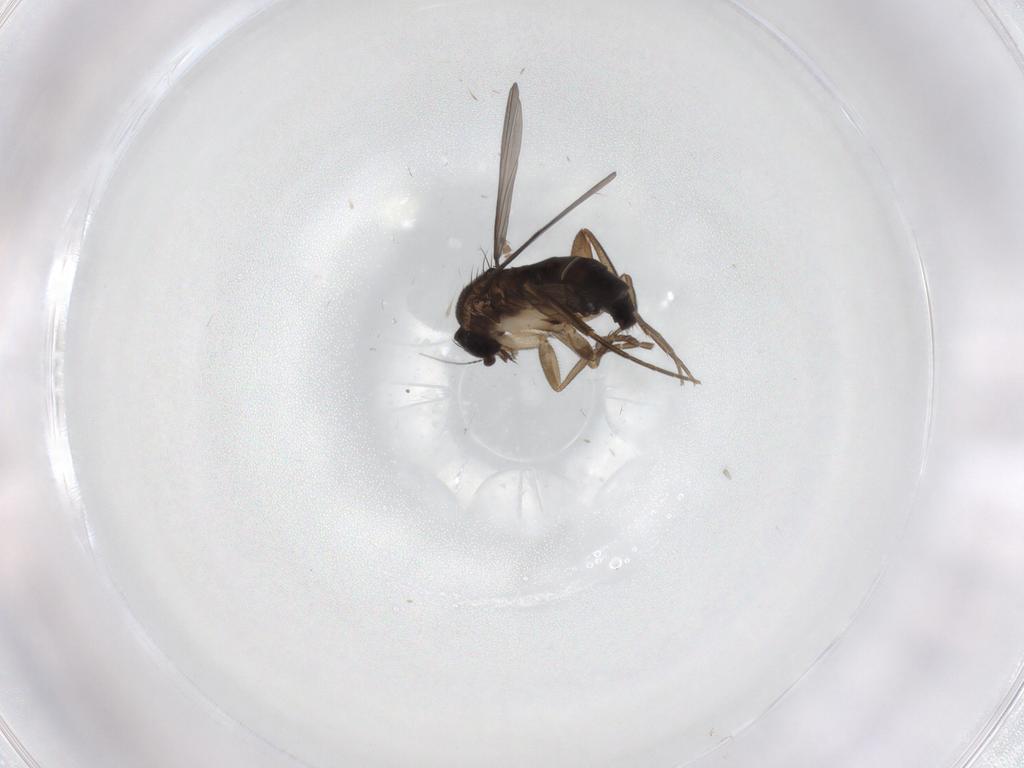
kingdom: Animalia
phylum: Arthropoda
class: Insecta
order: Diptera
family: Phoridae
